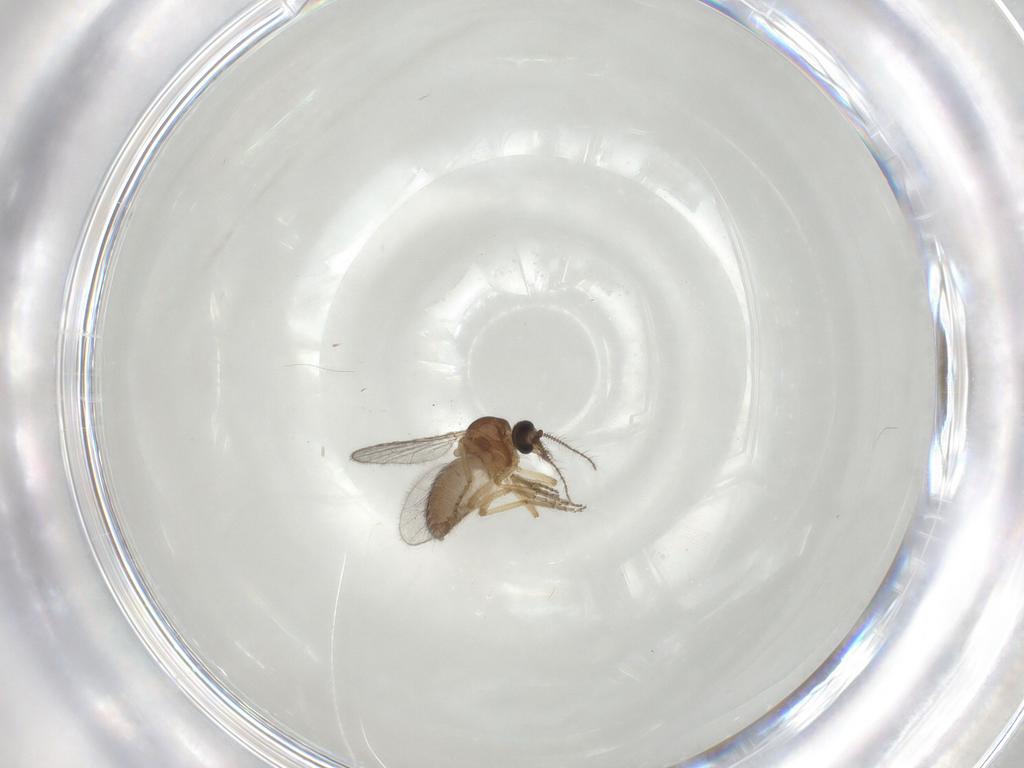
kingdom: Animalia
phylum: Arthropoda
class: Insecta
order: Diptera
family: Ceratopogonidae
